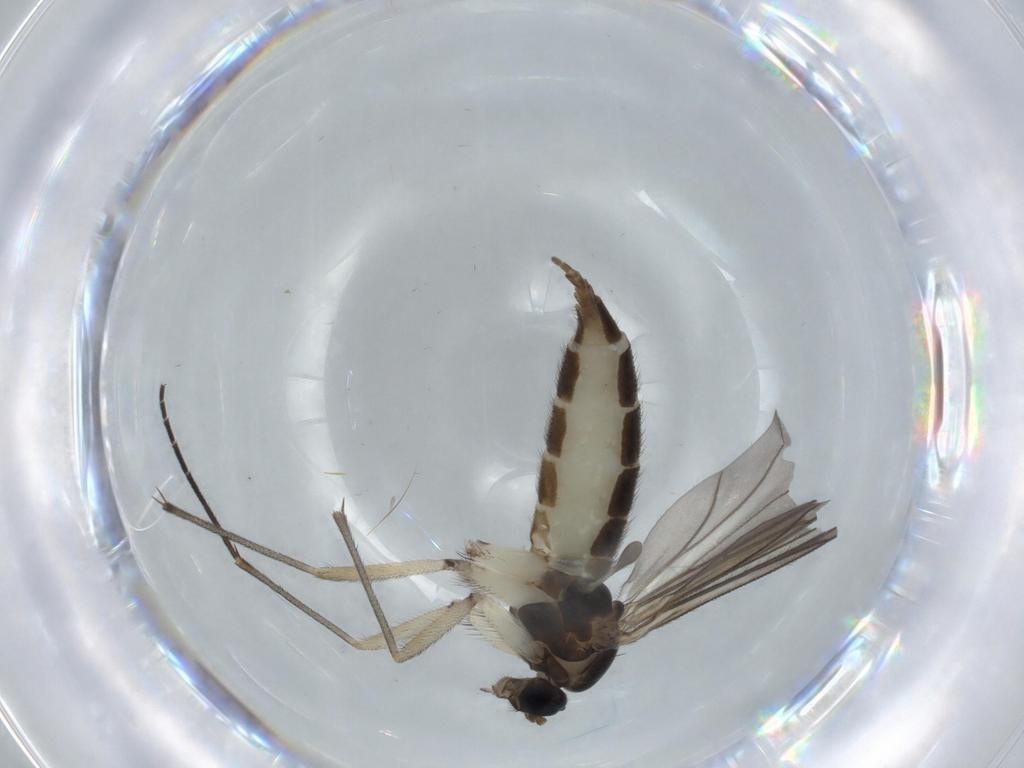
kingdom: Animalia
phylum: Arthropoda
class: Insecta
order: Diptera
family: Sciaridae
